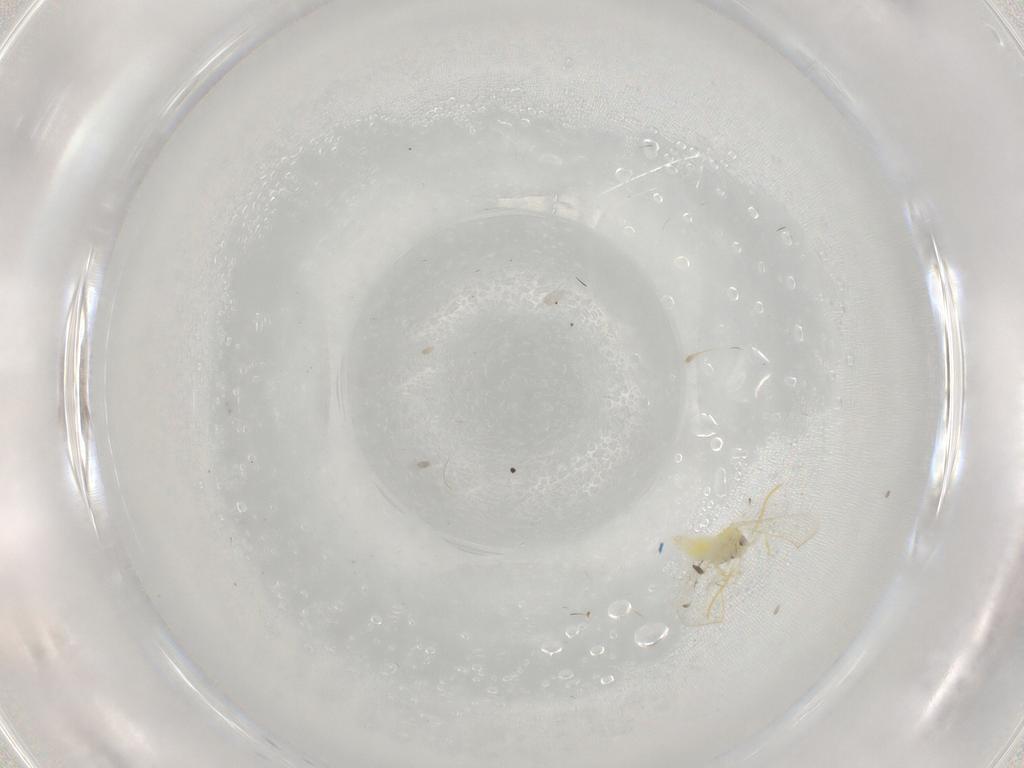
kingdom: Animalia
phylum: Arthropoda
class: Insecta
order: Hemiptera
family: Aleyrodidae
